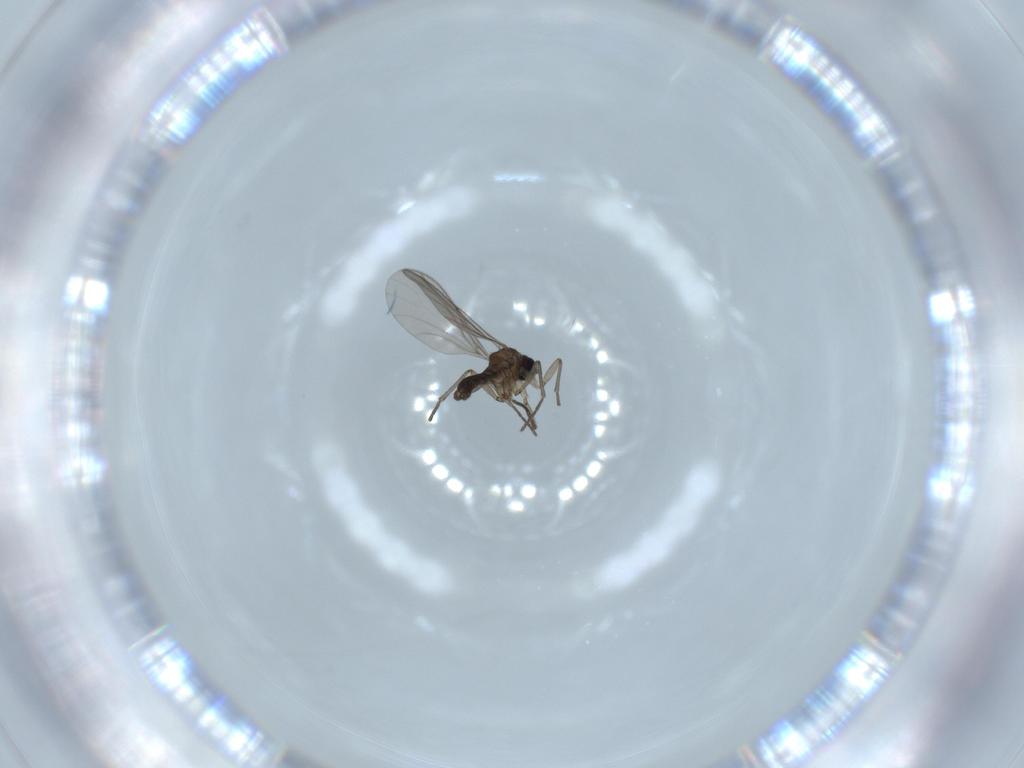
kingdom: Animalia
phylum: Arthropoda
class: Insecta
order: Diptera
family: Sciaridae
